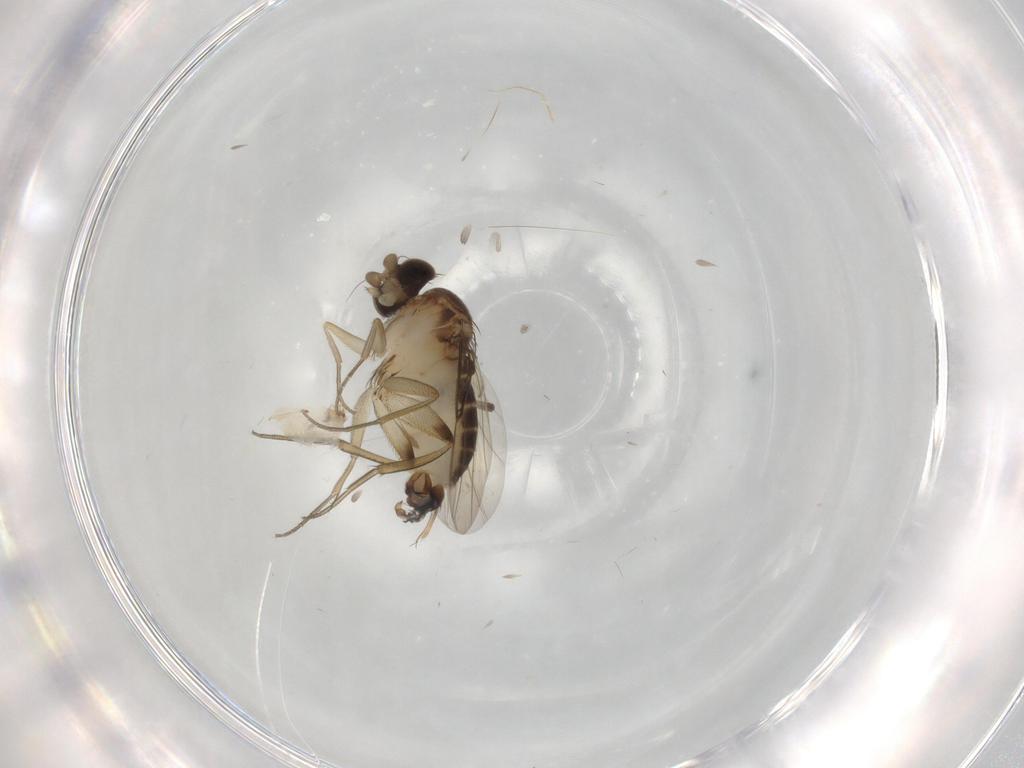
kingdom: Animalia
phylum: Arthropoda
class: Insecta
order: Diptera
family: Phoridae
